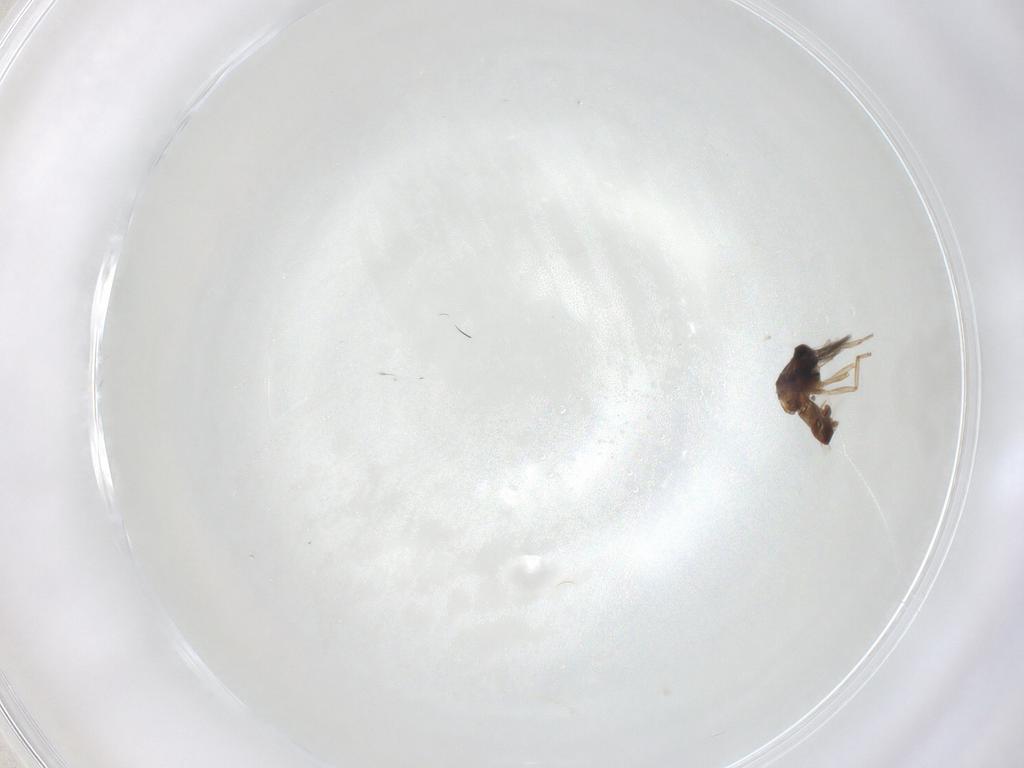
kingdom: Animalia
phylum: Arthropoda
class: Insecta
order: Diptera
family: Ceratopogonidae
